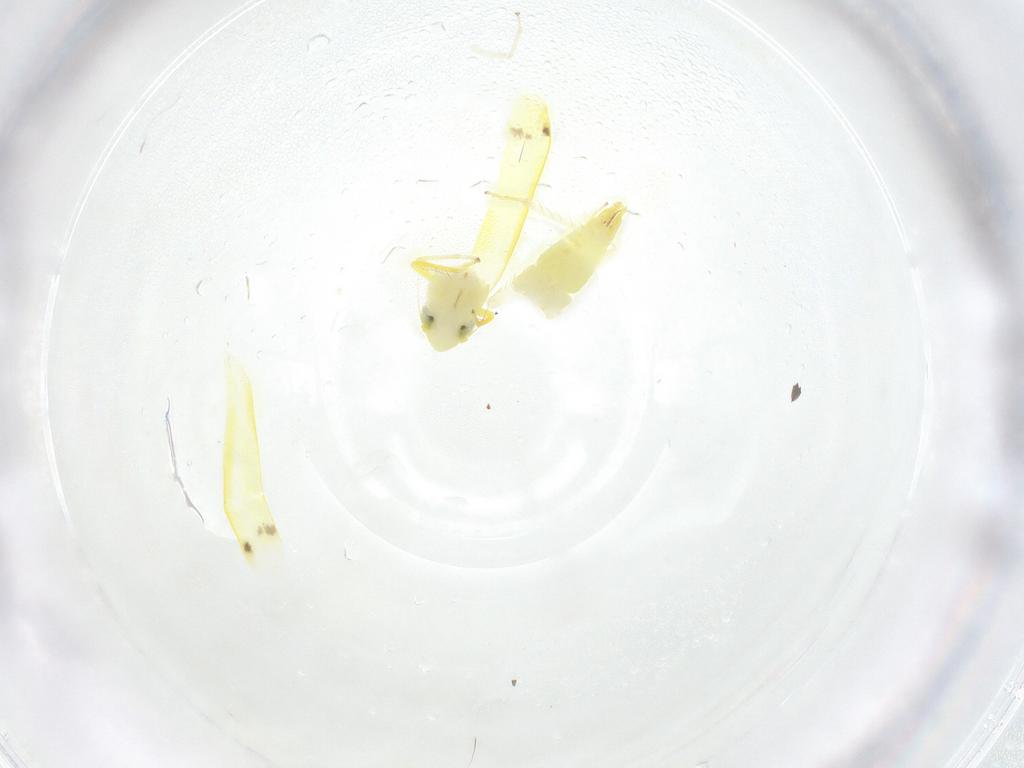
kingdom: Animalia
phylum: Arthropoda
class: Insecta
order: Hemiptera
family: Cicadellidae
